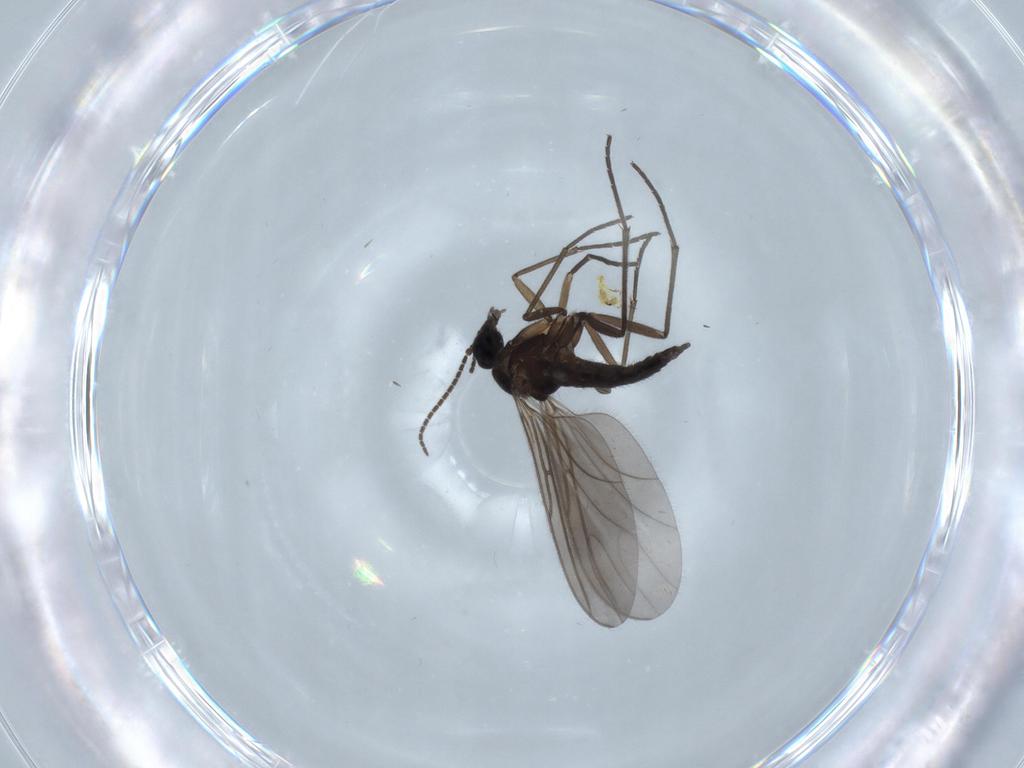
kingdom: Animalia
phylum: Arthropoda
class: Insecta
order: Diptera
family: Sciaridae
